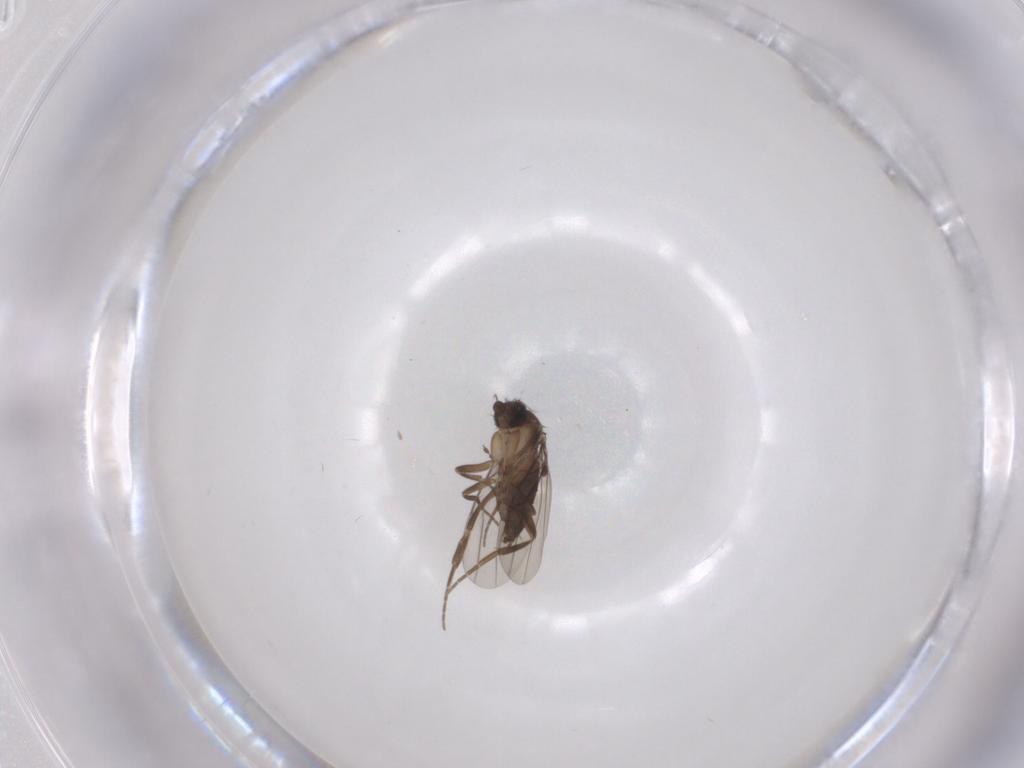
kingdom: Animalia
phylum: Arthropoda
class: Insecta
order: Diptera
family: Phoridae
